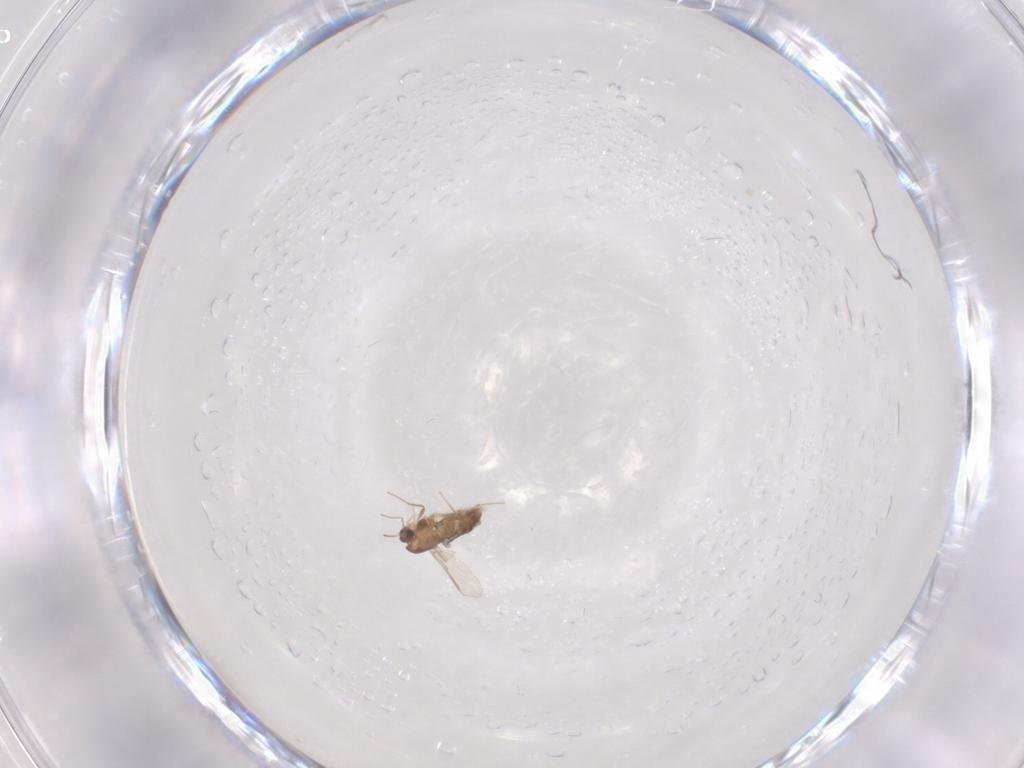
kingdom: Animalia
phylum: Arthropoda
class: Insecta
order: Diptera
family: Chironomidae
